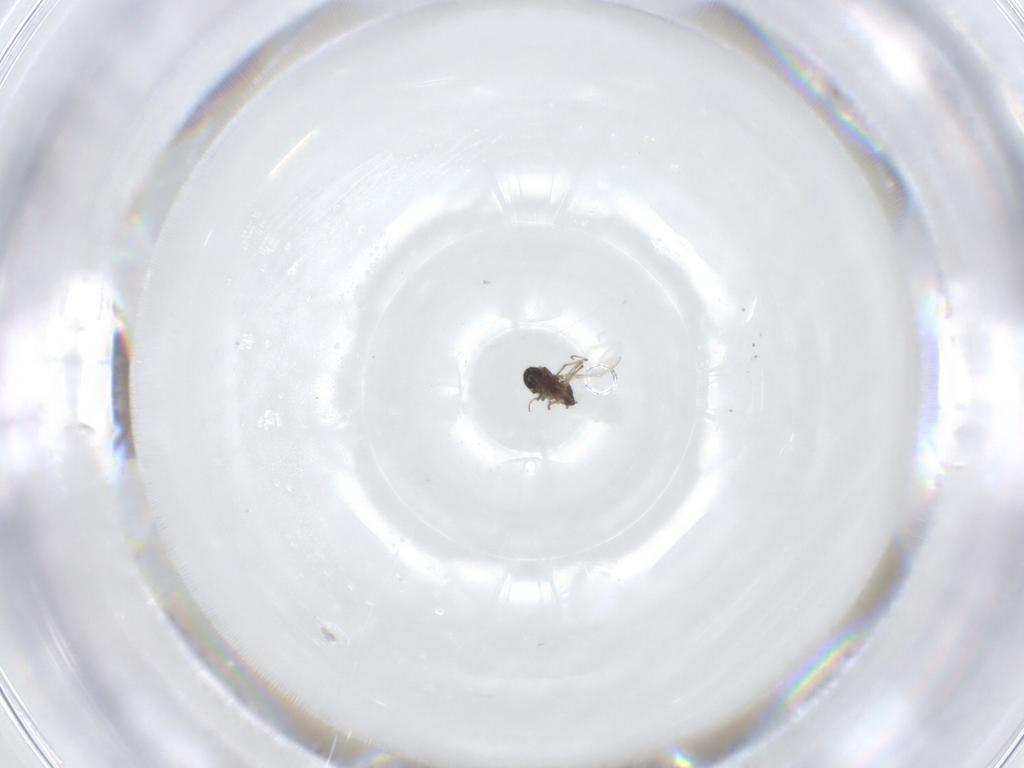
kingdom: Animalia
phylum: Arthropoda
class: Insecta
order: Diptera
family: Ceratopogonidae
